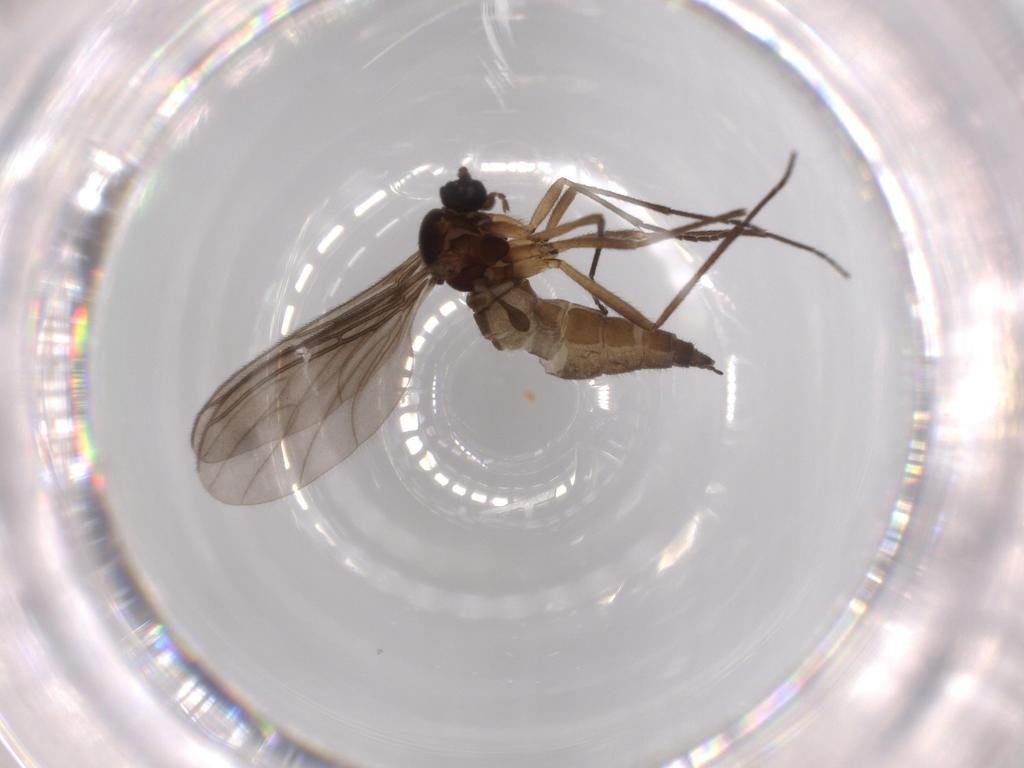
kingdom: Animalia
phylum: Arthropoda
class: Insecta
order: Diptera
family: Sciaridae
